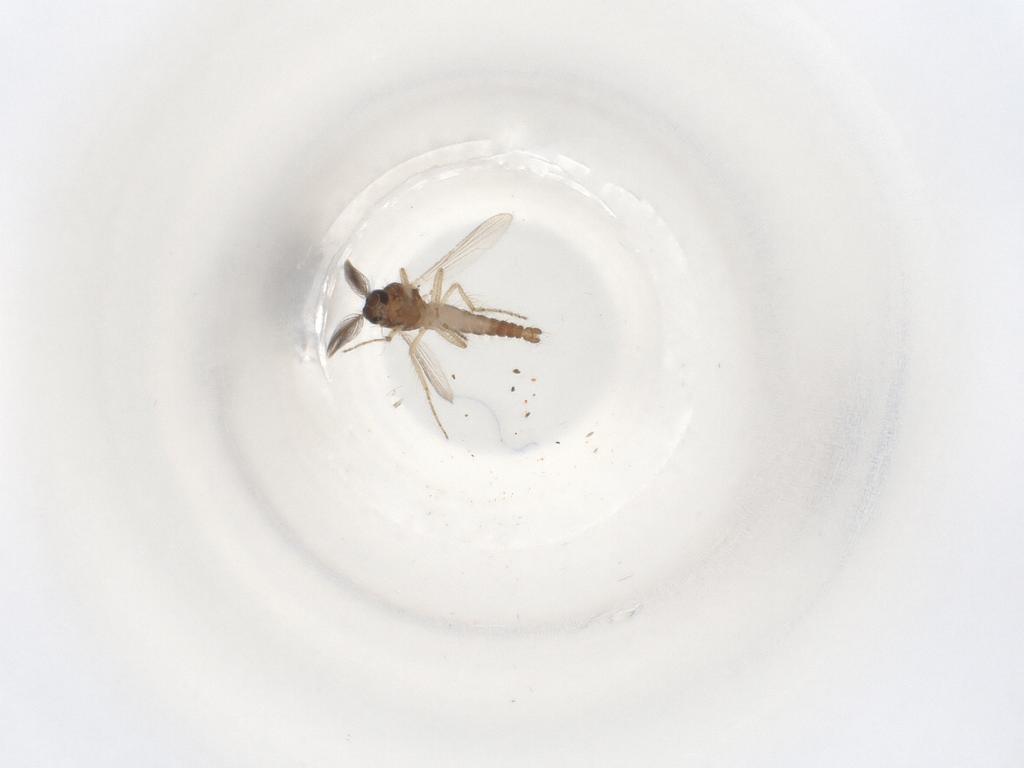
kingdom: Animalia
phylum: Arthropoda
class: Insecta
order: Diptera
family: Ceratopogonidae
